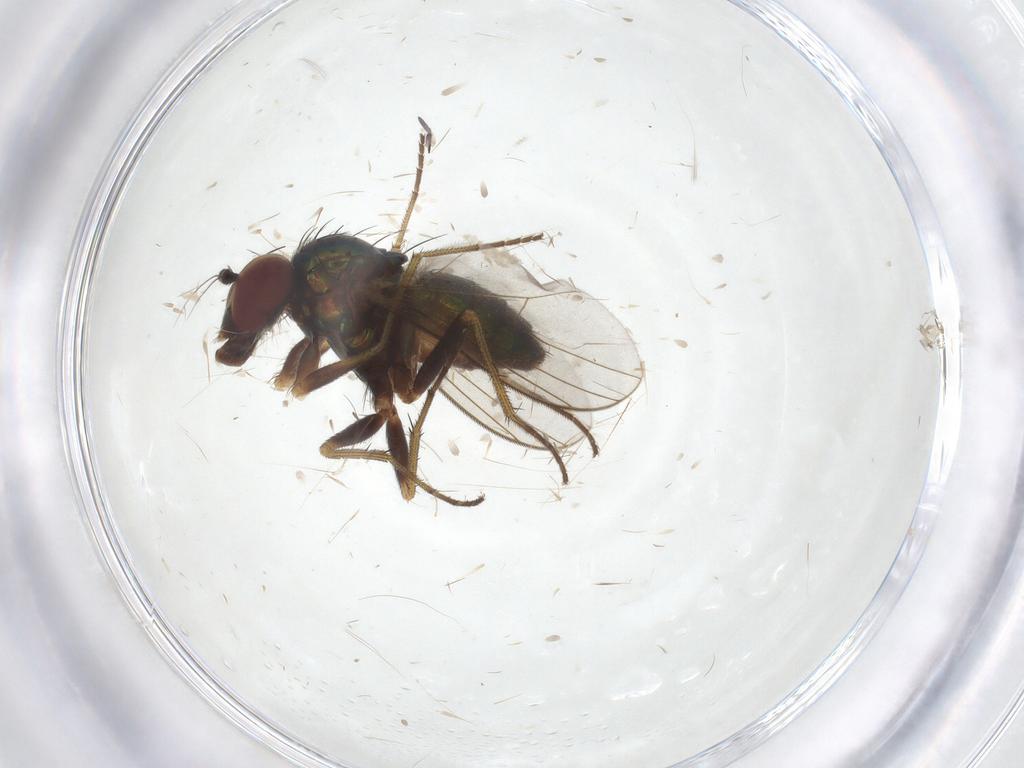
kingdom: Animalia
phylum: Arthropoda
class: Insecta
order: Diptera
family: Dolichopodidae
